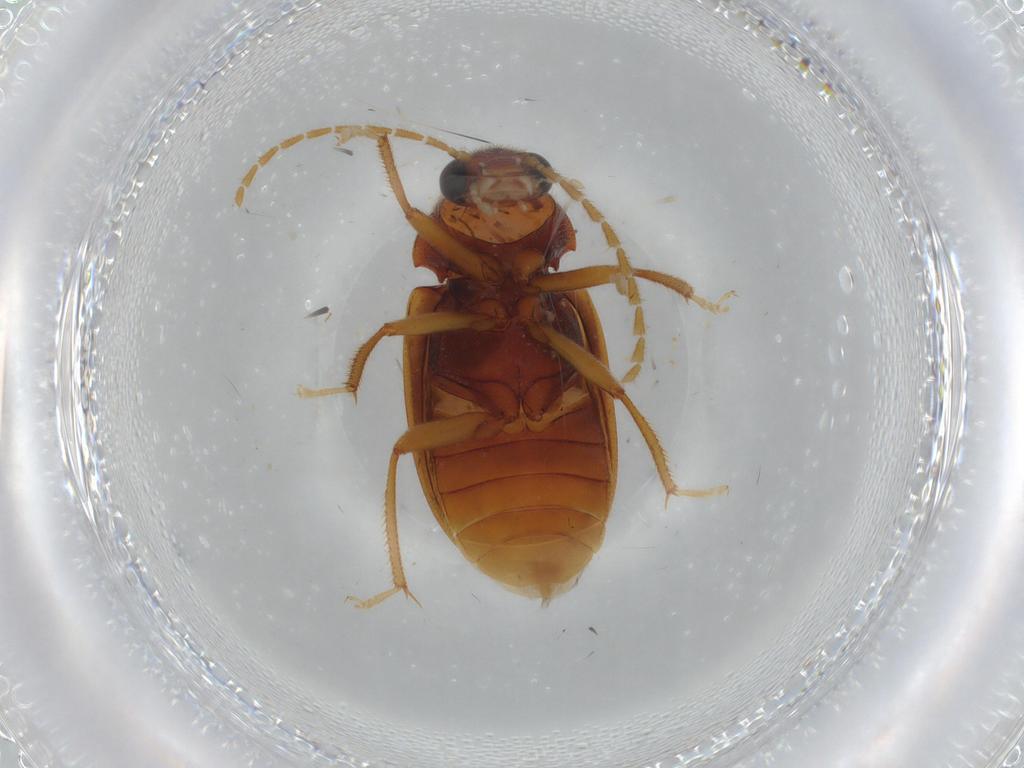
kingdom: Animalia
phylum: Arthropoda
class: Insecta
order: Coleoptera
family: Ptilodactylidae
